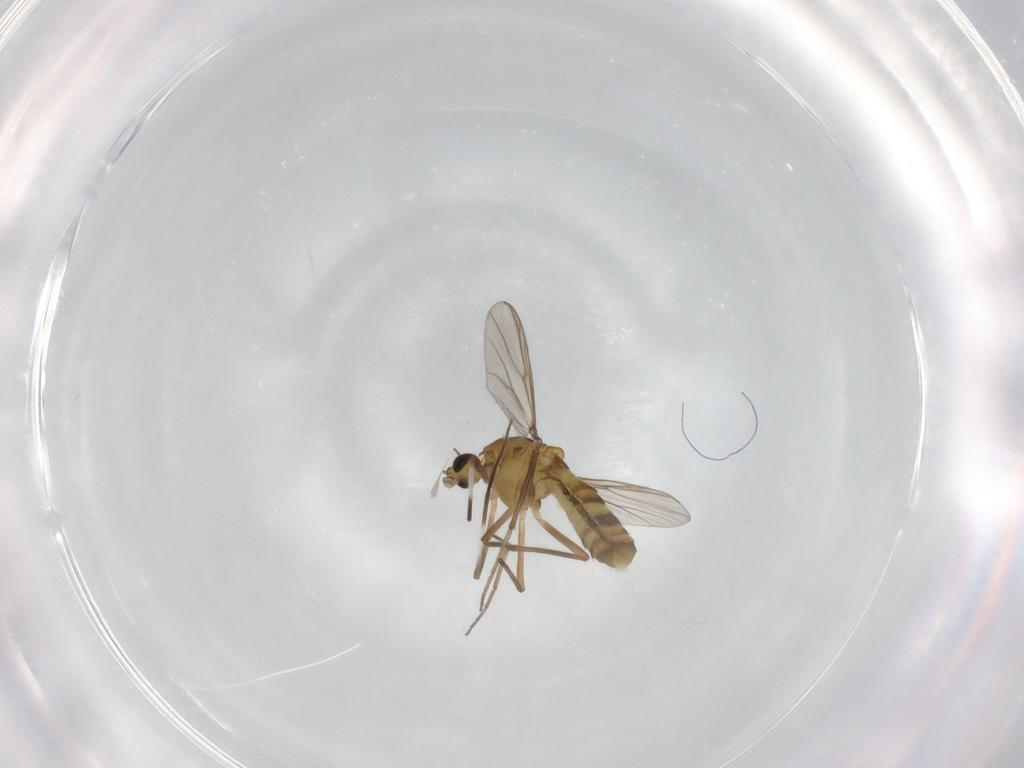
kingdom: Animalia
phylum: Arthropoda
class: Insecta
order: Diptera
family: Chironomidae
